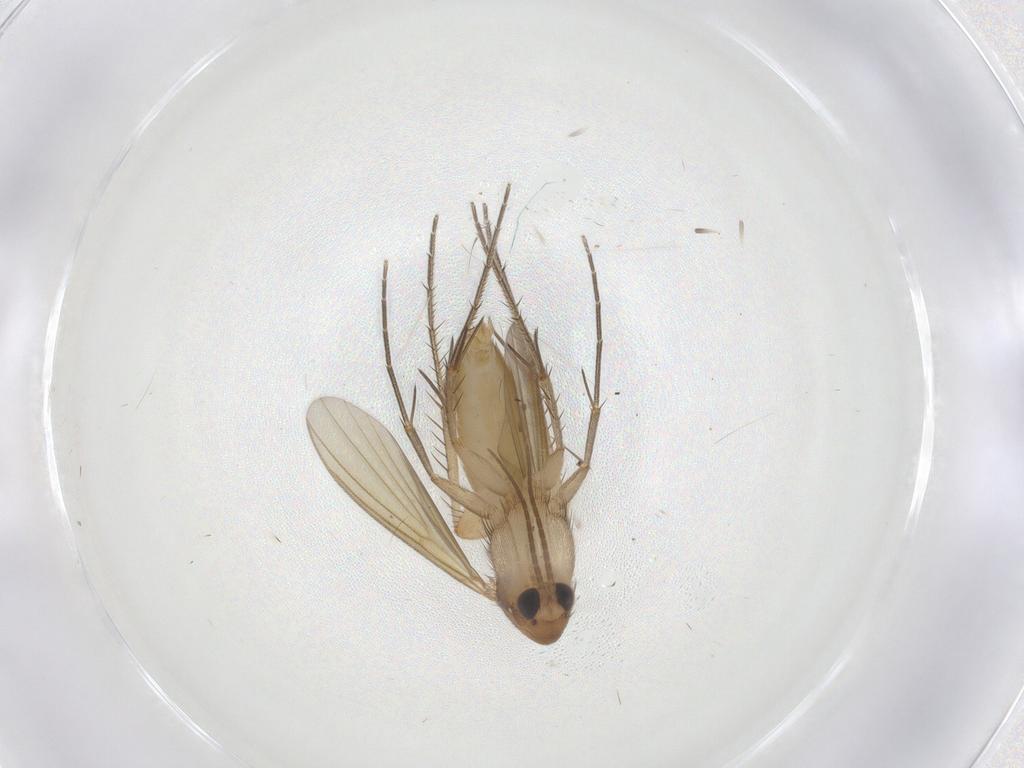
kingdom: Animalia
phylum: Arthropoda
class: Insecta
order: Diptera
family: Mycetophilidae
